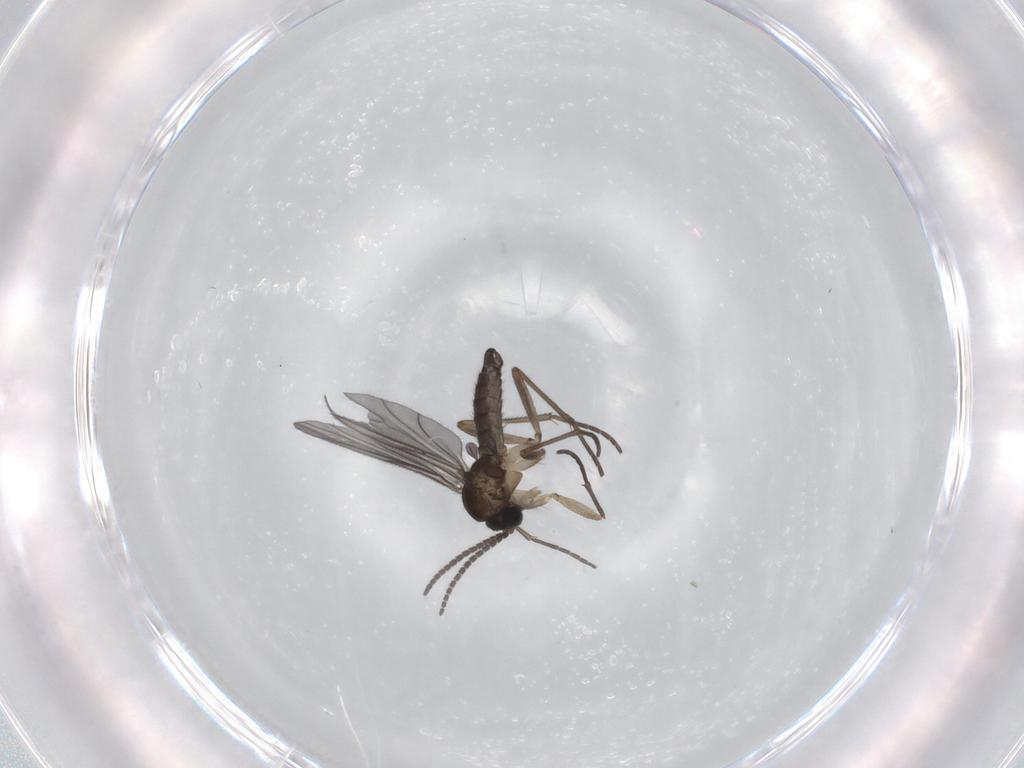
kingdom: Animalia
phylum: Arthropoda
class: Insecta
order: Diptera
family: Sciaridae
